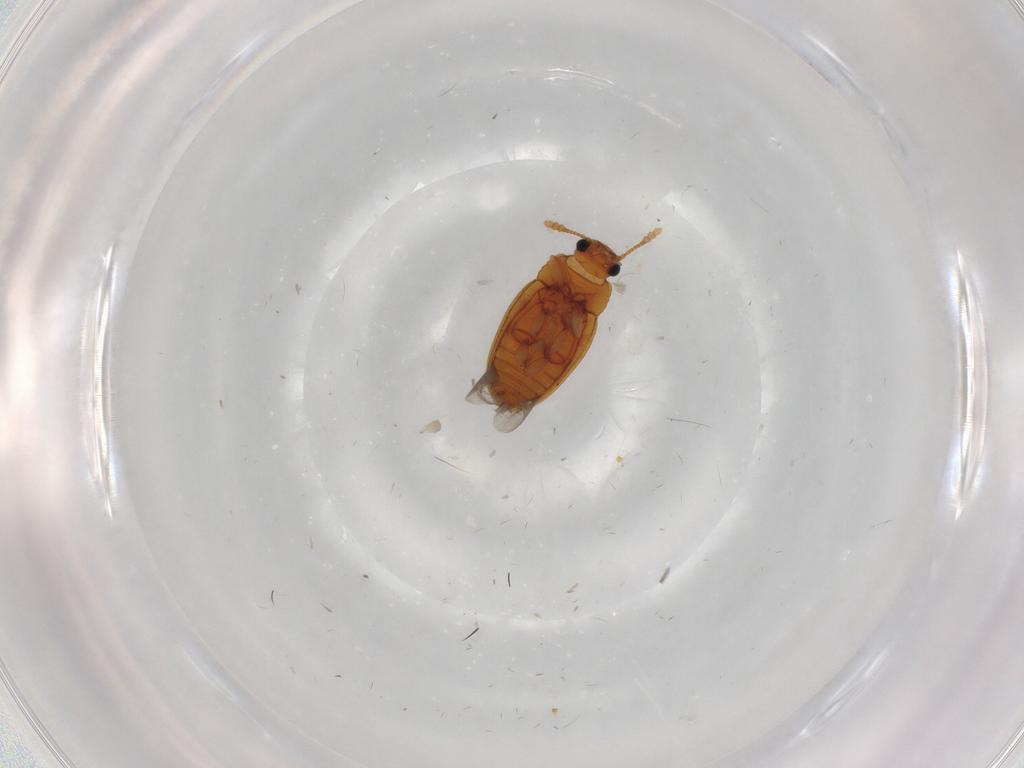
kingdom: Animalia
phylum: Arthropoda
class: Insecta
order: Coleoptera
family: Erotylidae
